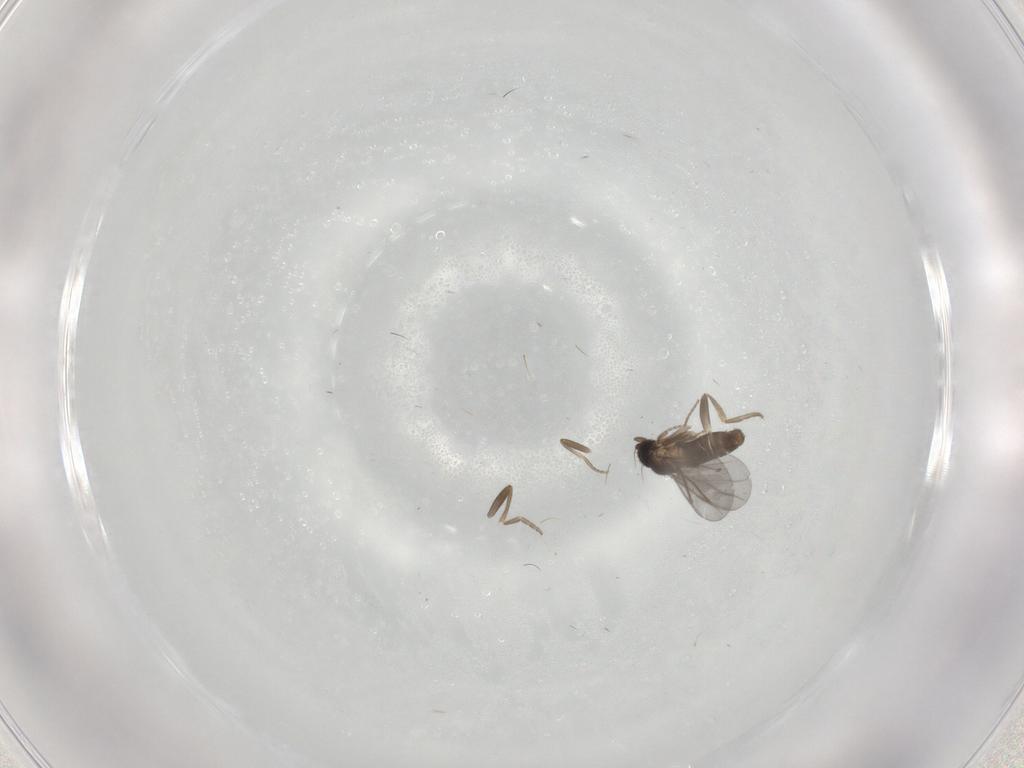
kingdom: Animalia
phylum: Arthropoda
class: Insecta
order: Diptera
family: Phoridae
